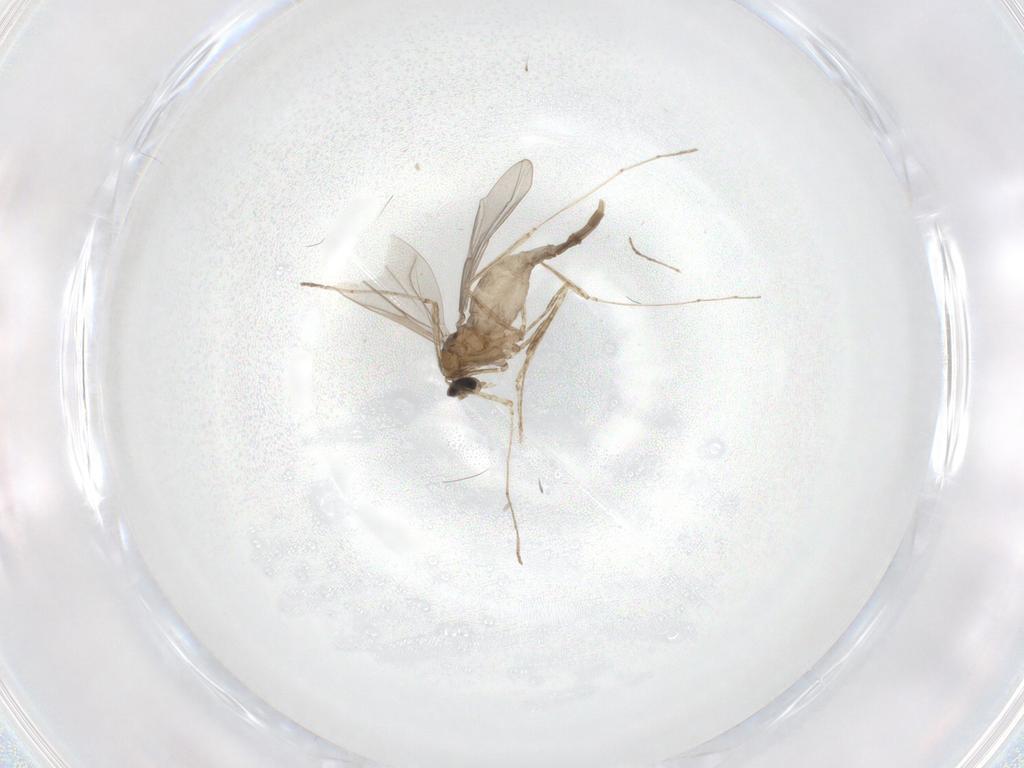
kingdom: Animalia
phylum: Arthropoda
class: Insecta
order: Diptera
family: Cecidomyiidae
